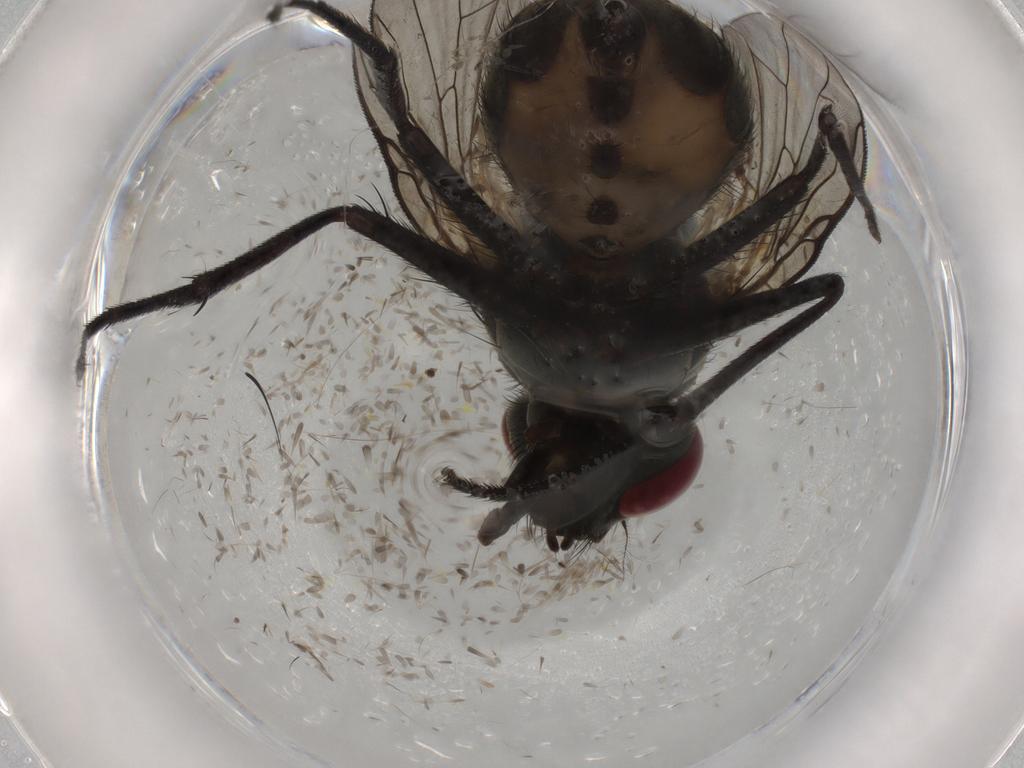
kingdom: Animalia
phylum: Arthropoda
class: Insecta
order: Diptera
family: Muscidae
